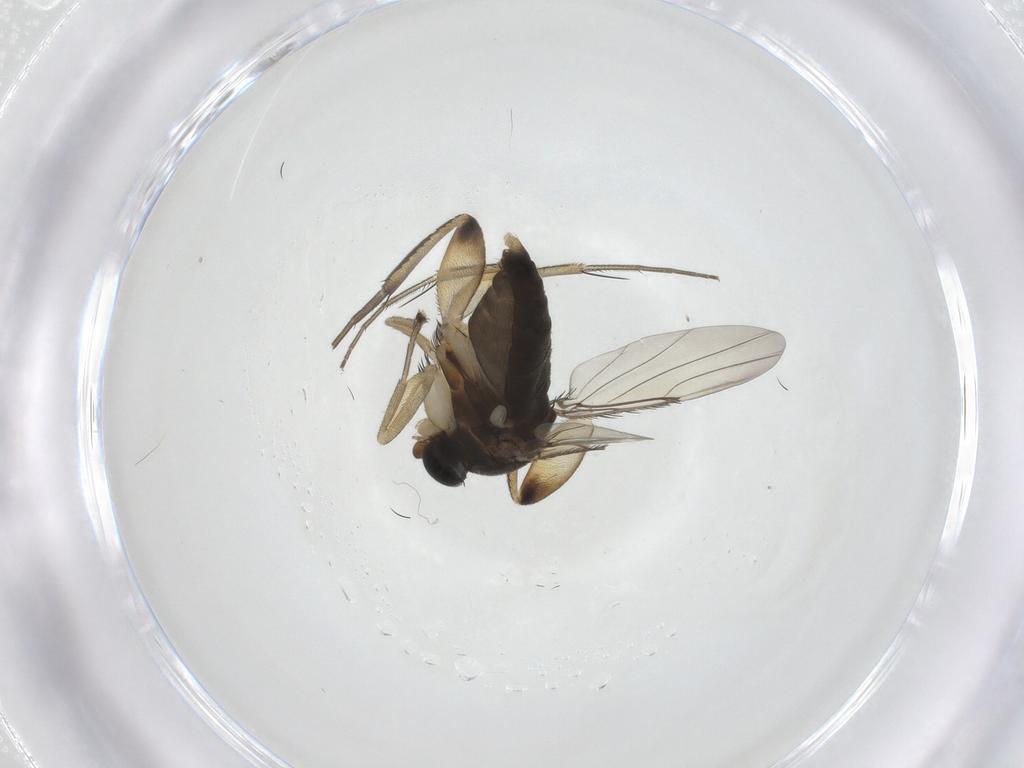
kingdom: Animalia
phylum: Arthropoda
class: Insecta
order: Diptera
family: Phoridae
